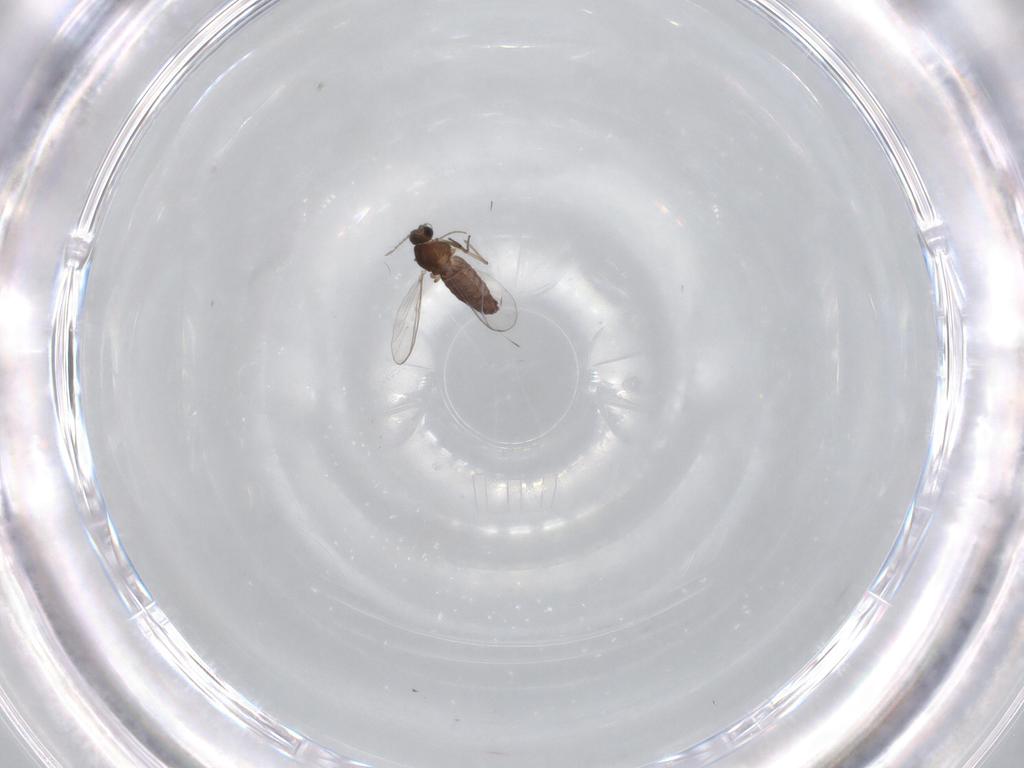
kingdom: Animalia
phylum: Arthropoda
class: Insecta
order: Diptera
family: Chironomidae
